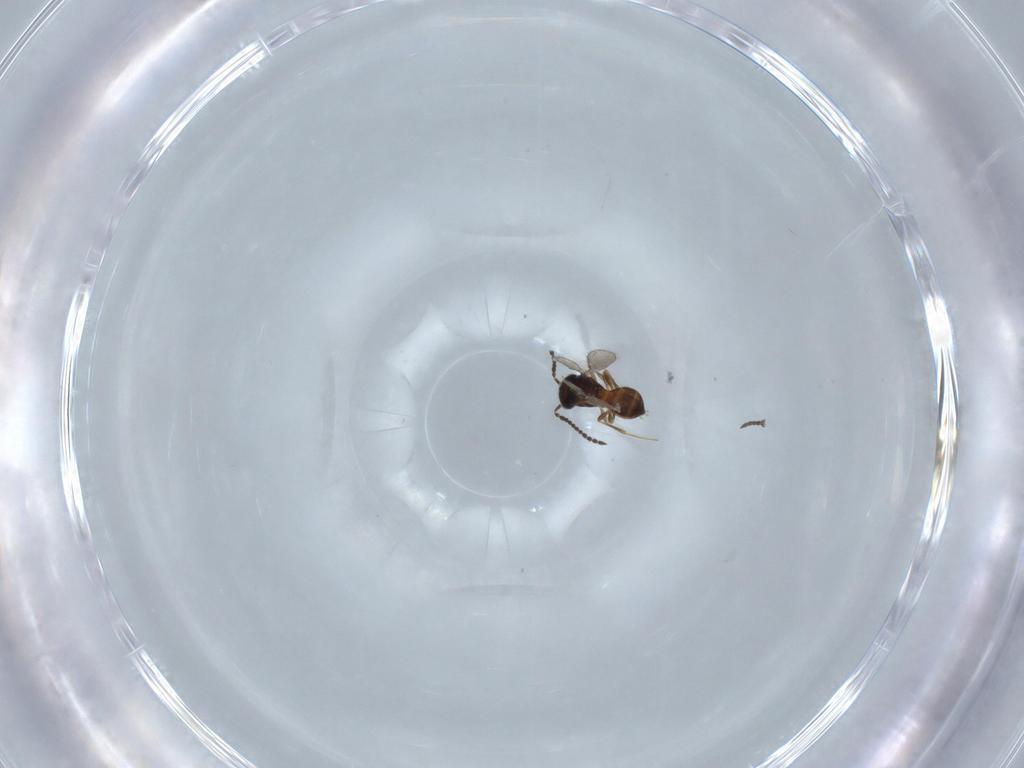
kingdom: Animalia
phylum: Arthropoda
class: Insecta
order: Hymenoptera
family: Scelionidae
